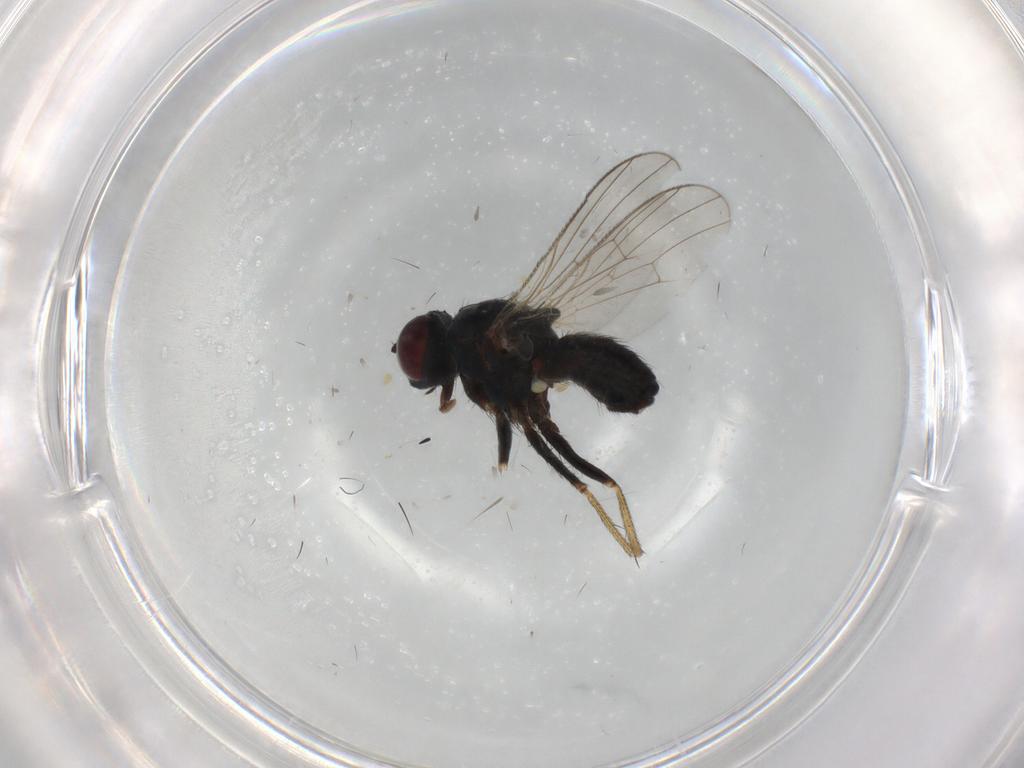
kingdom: Animalia
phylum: Arthropoda
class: Insecta
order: Diptera
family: Muscidae
